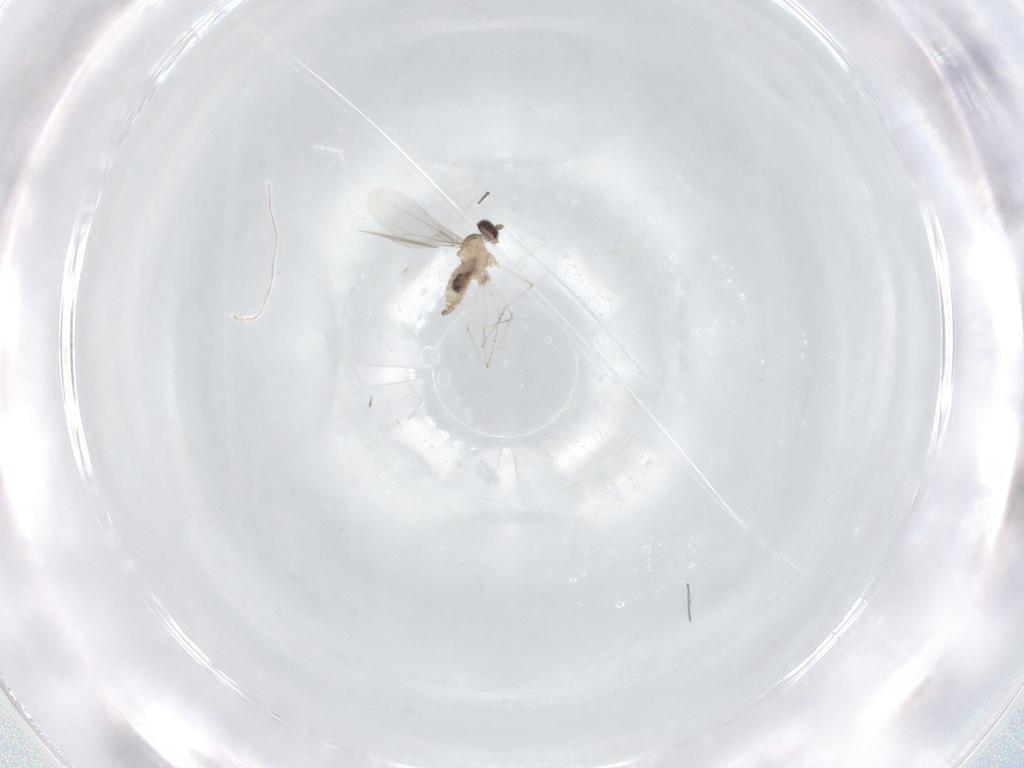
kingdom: Animalia
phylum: Arthropoda
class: Insecta
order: Diptera
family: Cecidomyiidae
